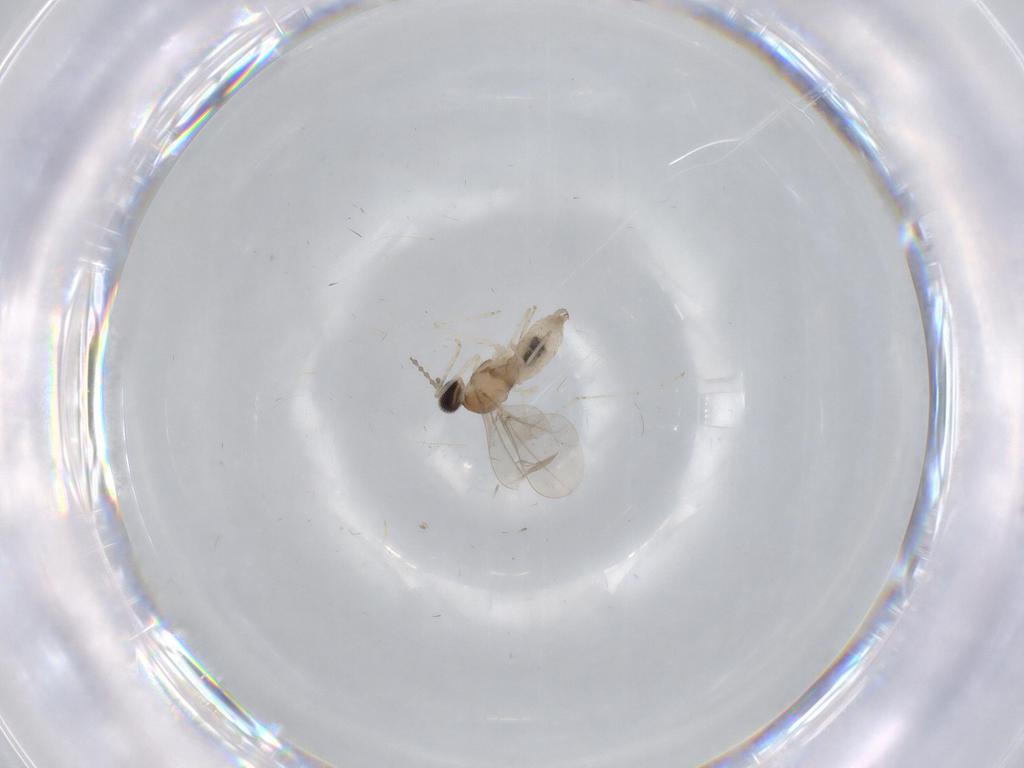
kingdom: Animalia
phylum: Arthropoda
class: Insecta
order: Diptera
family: Cecidomyiidae
